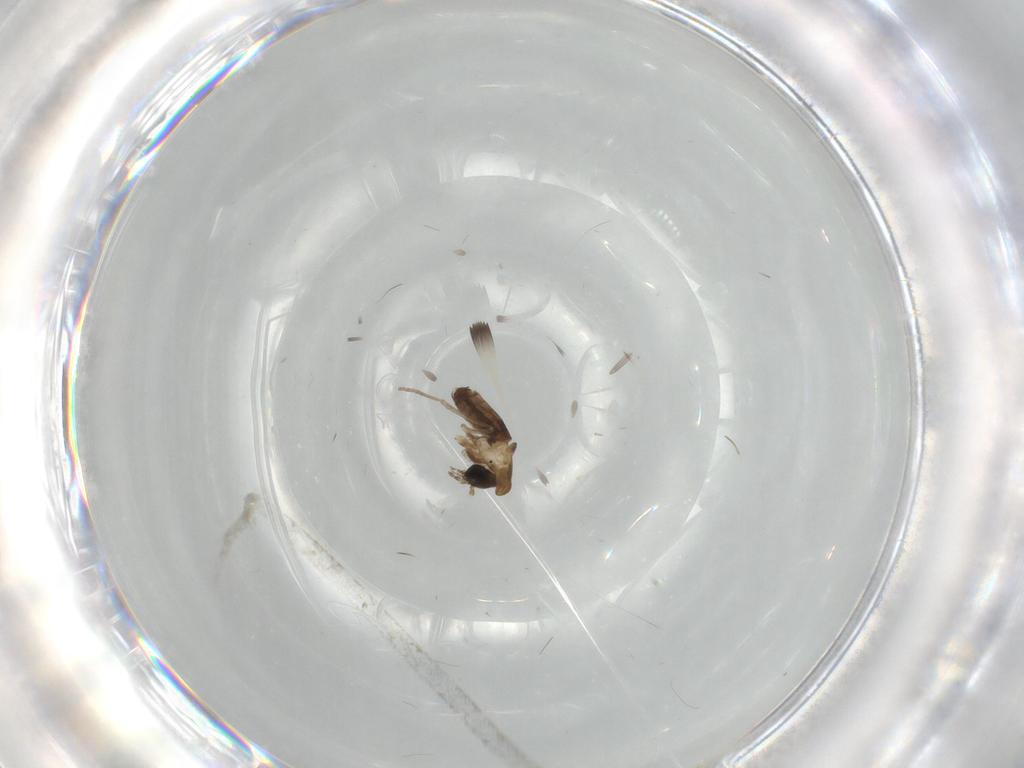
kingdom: Animalia
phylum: Arthropoda
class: Insecta
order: Diptera
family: Psychodidae
